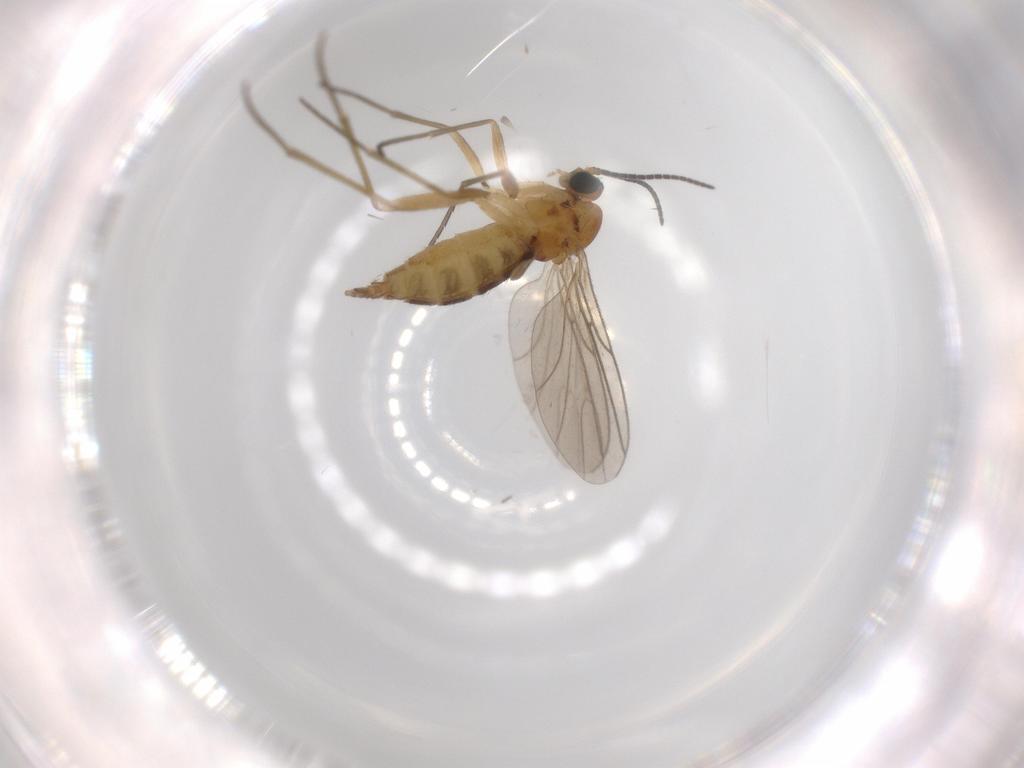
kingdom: Animalia
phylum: Arthropoda
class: Insecta
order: Diptera
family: Sciaridae
